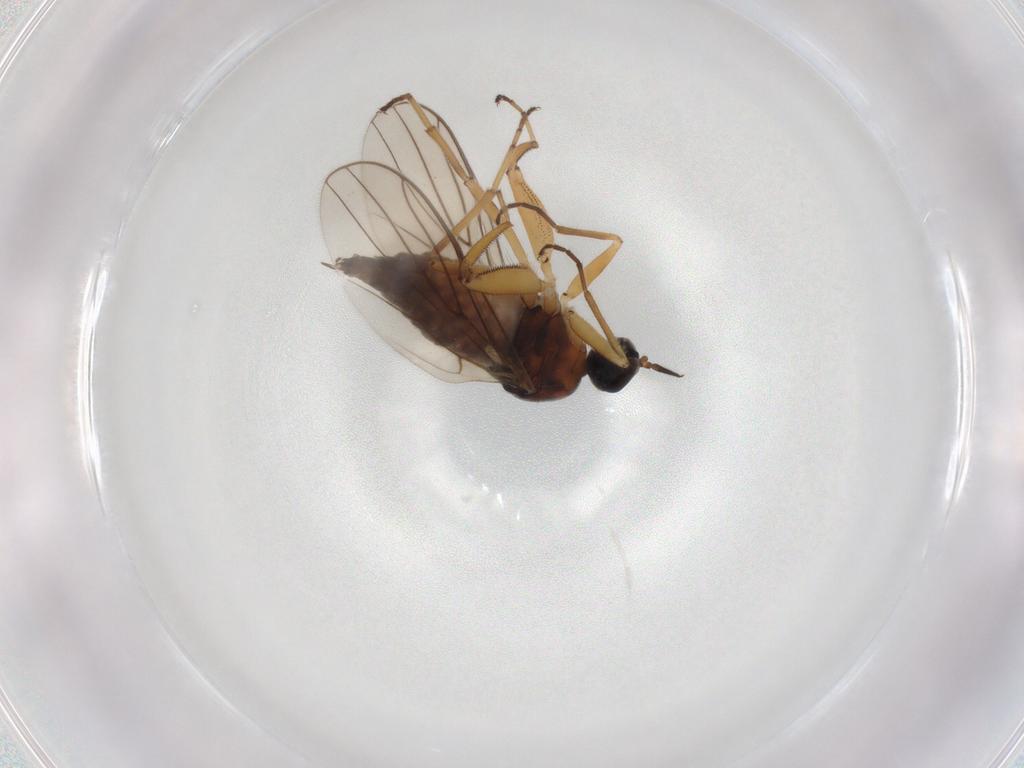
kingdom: Animalia
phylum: Arthropoda
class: Insecta
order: Diptera
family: Hybotidae
